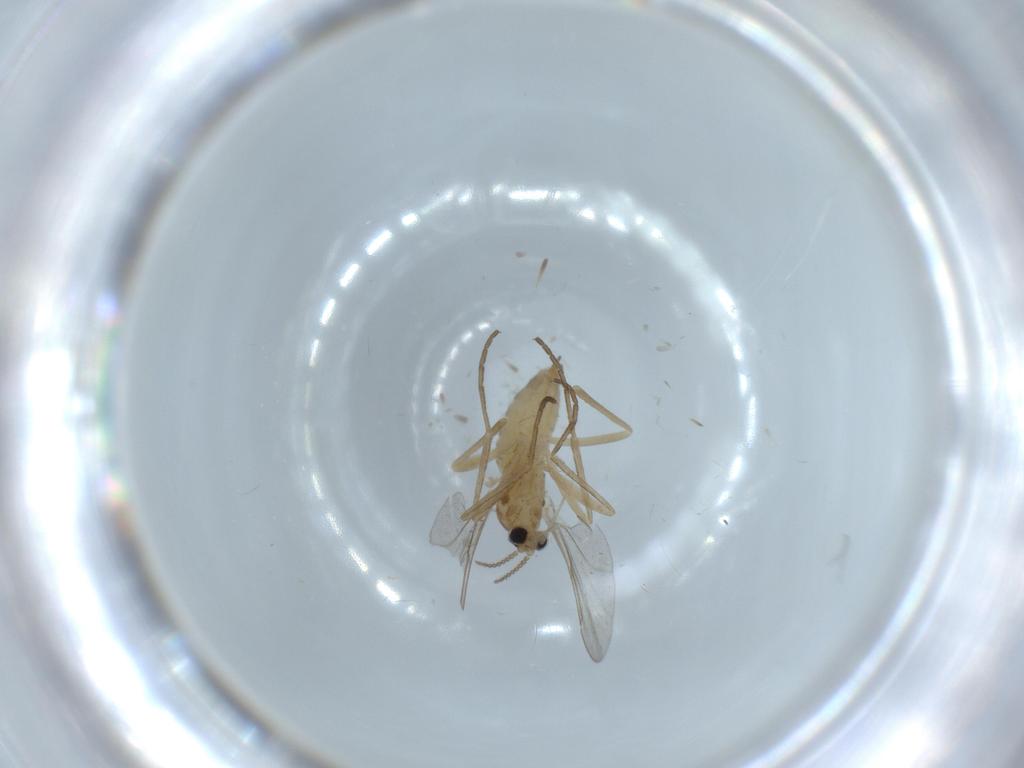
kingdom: Animalia
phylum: Arthropoda
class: Insecta
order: Diptera
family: Cecidomyiidae
